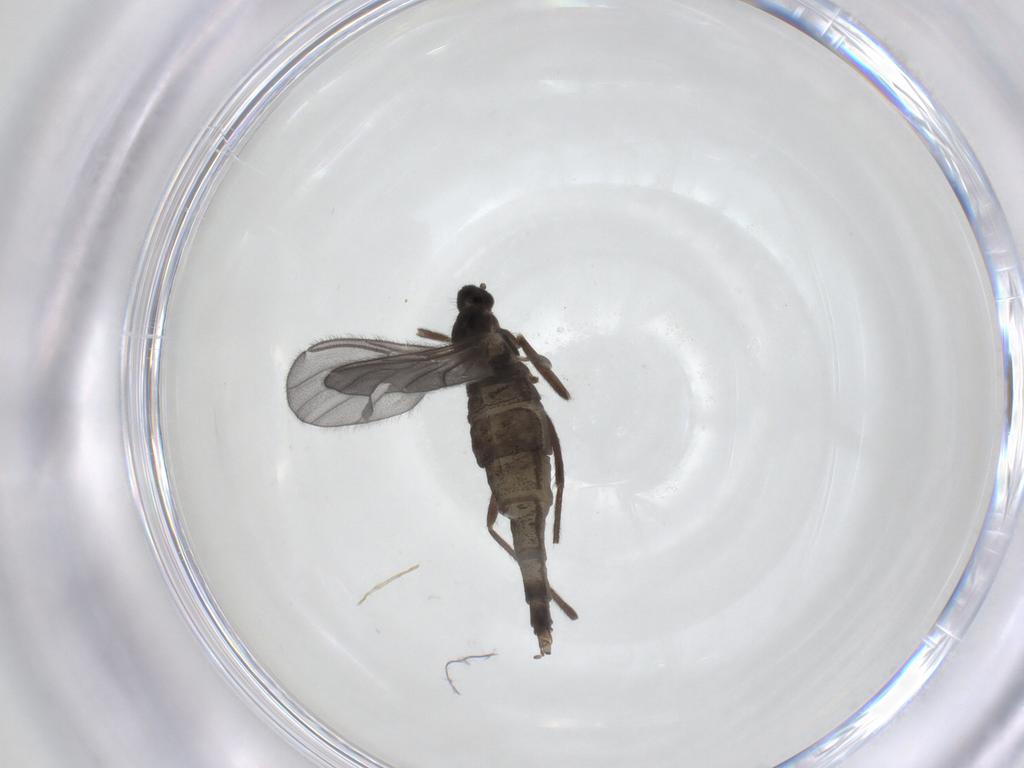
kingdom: Animalia
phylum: Arthropoda
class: Insecta
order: Diptera
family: Cecidomyiidae
